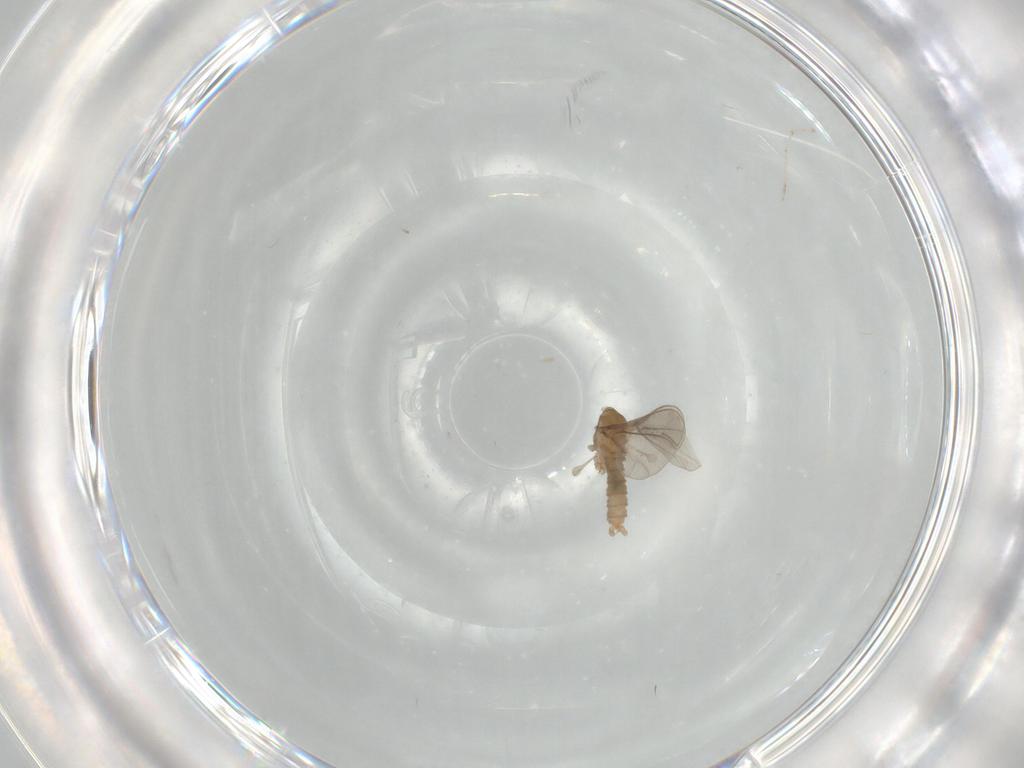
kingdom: Animalia
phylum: Arthropoda
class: Insecta
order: Diptera
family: Cecidomyiidae
